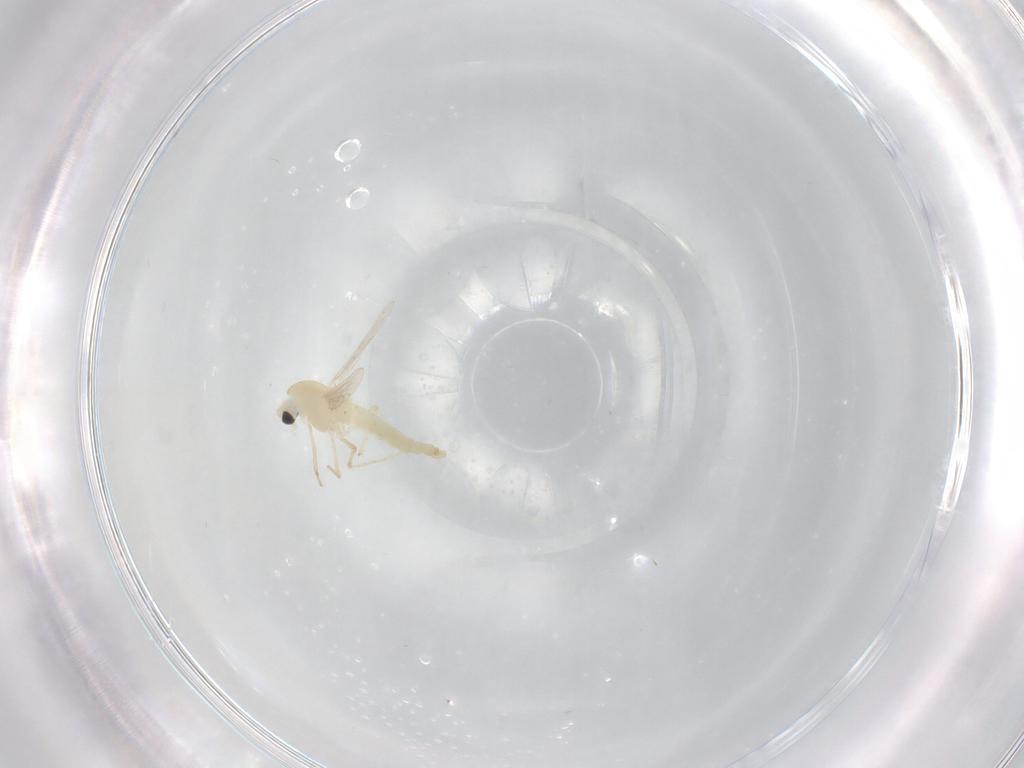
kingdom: Animalia
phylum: Arthropoda
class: Insecta
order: Diptera
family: Chironomidae
